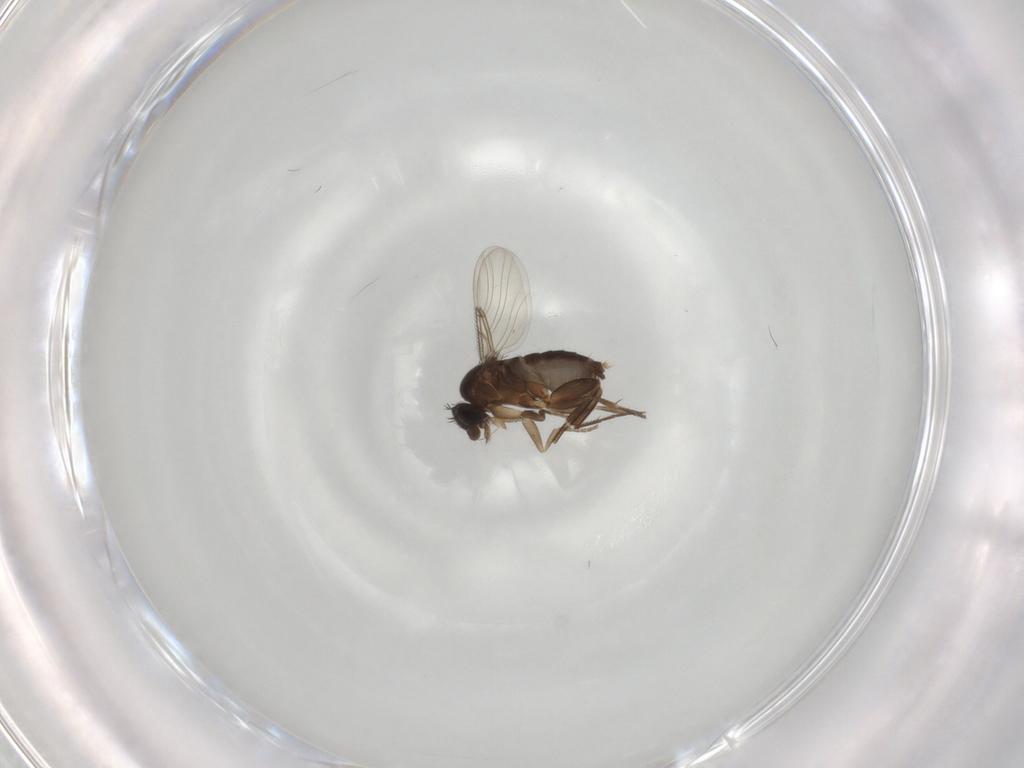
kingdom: Animalia
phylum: Arthropoda
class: Insecta
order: Diptera
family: Phoridae
